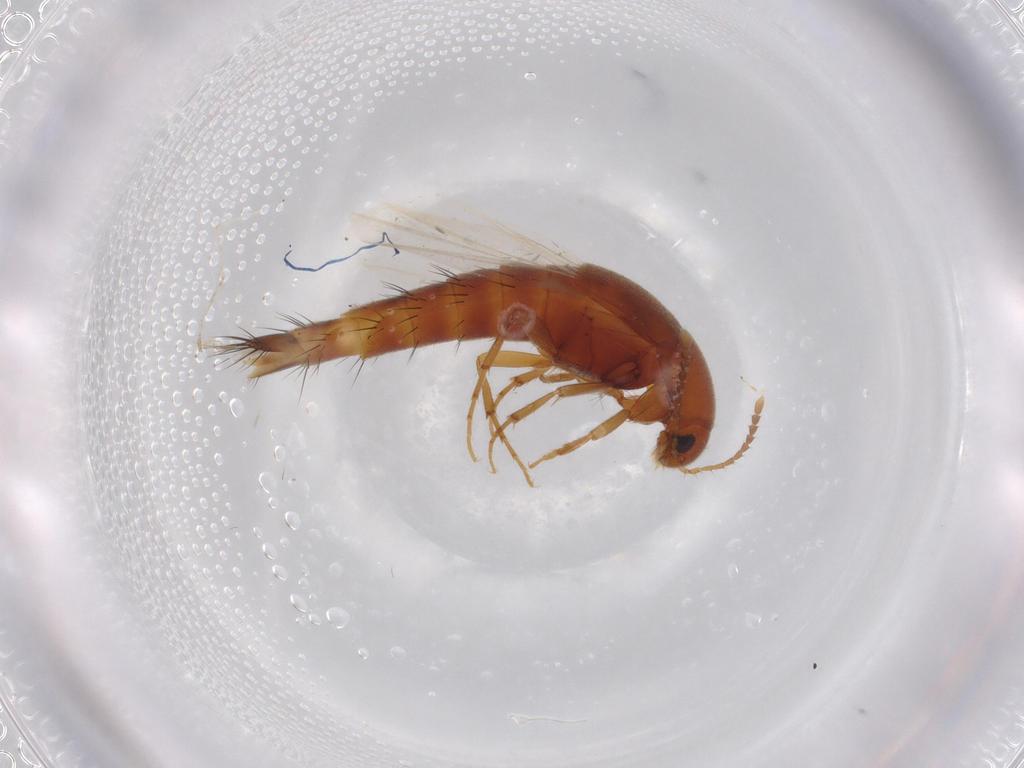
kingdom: Animalia
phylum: Arthropoda
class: Insecta
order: Coleoptera
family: Staphylinidae
